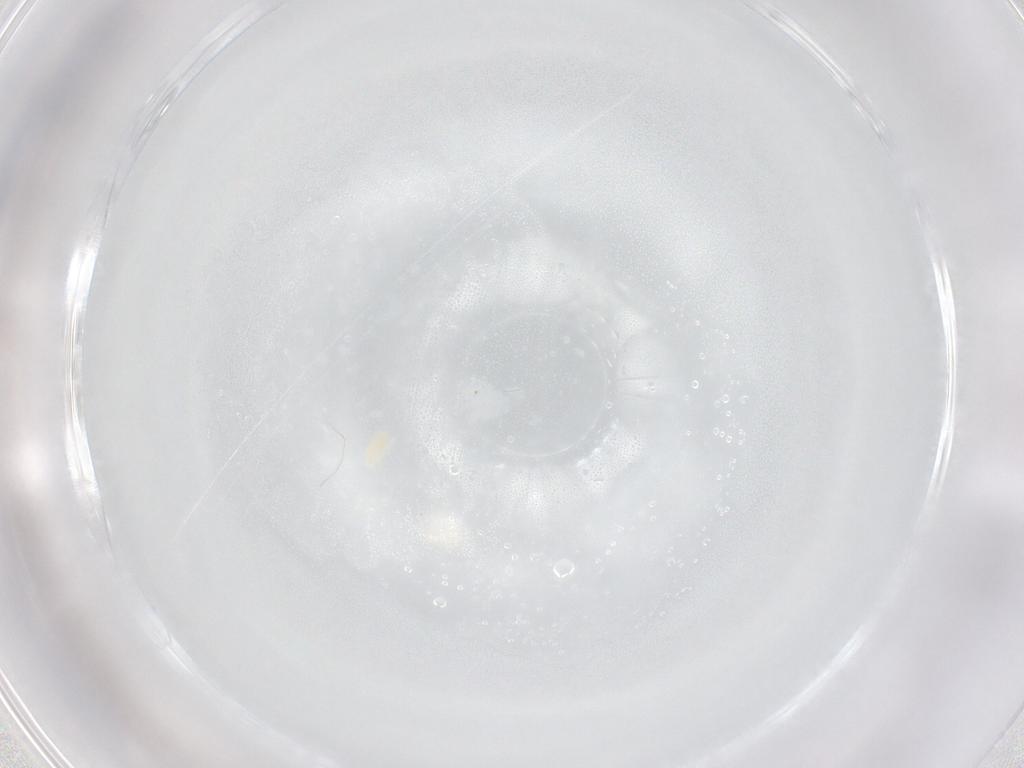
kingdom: Animalia
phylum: Arthropoda
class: Arachnida
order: Trombidiformes
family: Eupodidae
